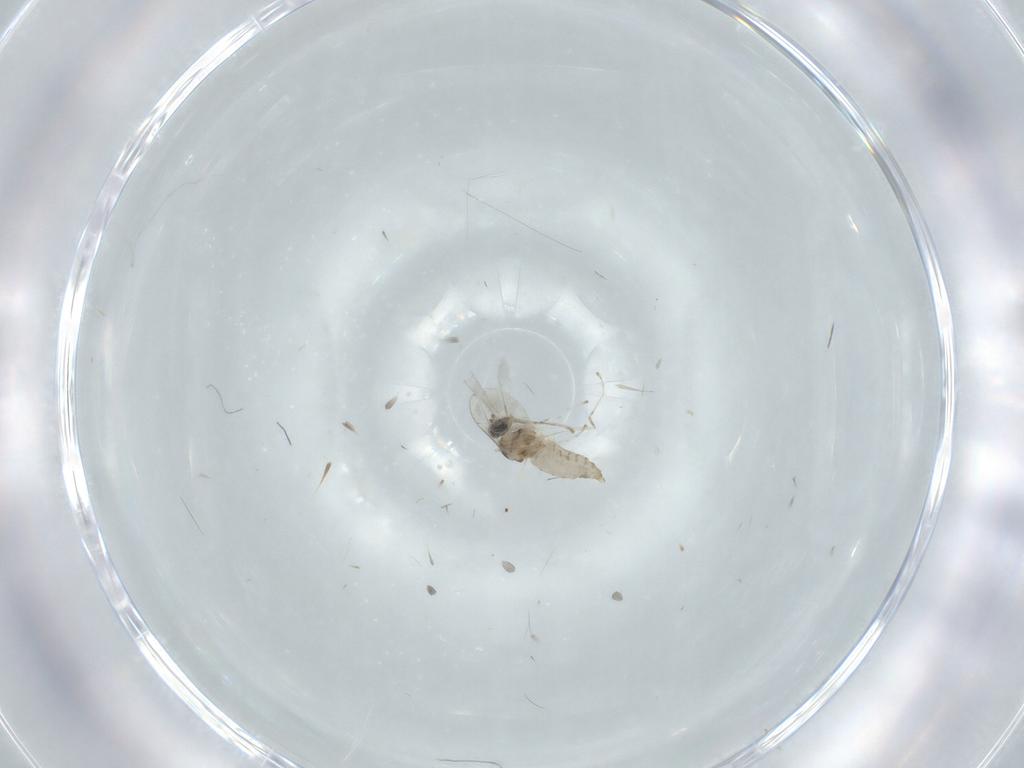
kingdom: Animalia
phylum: Arthropoda
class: Insecta
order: Diptera
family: Cecidomyiidae
